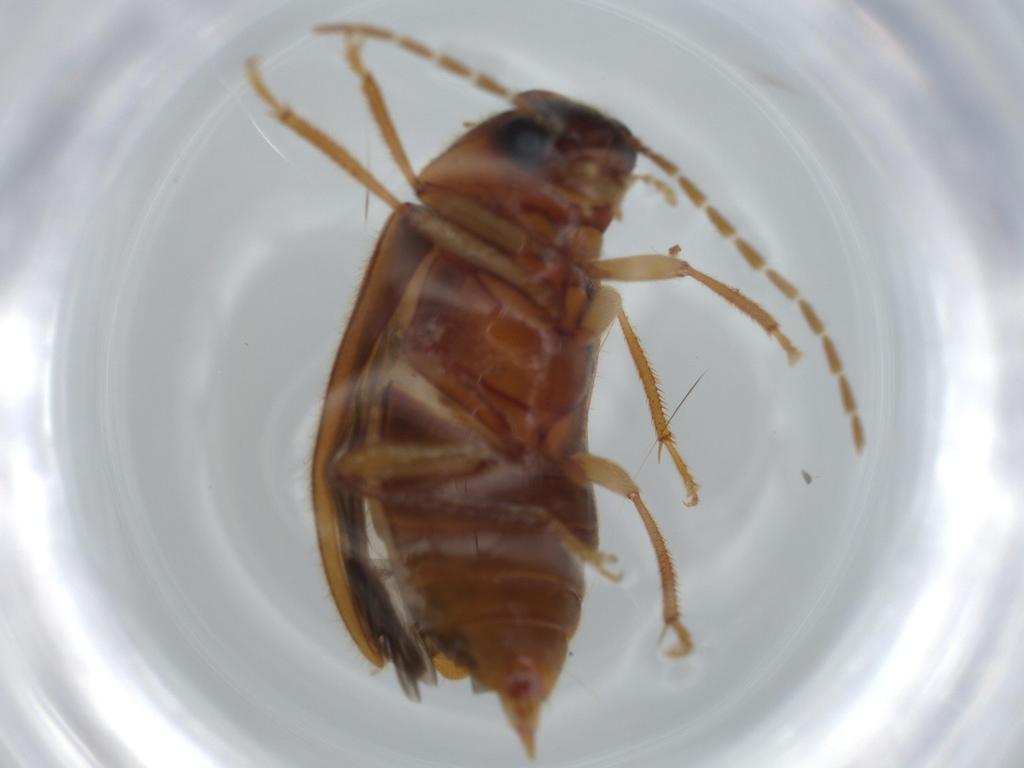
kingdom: Animalia
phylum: Arthropoda
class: Insecta
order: Coleoptera
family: Ptilodactylidae
